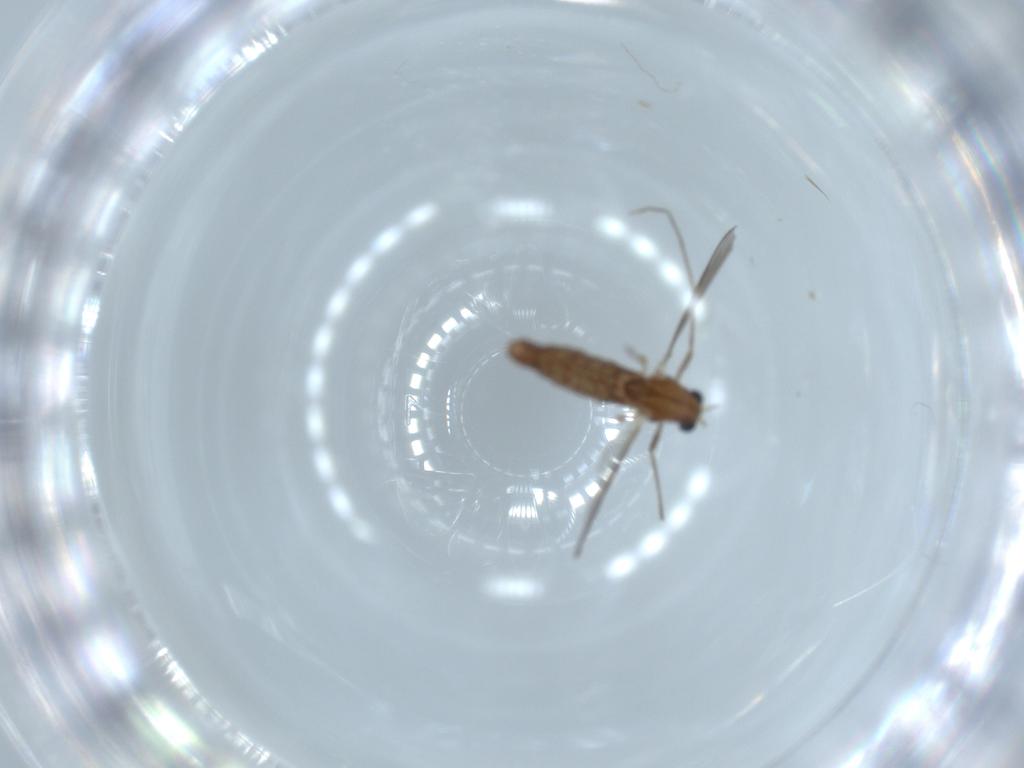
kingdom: Animalia
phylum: Arthropoda
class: Insecta
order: Diptera
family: Chironomidae
